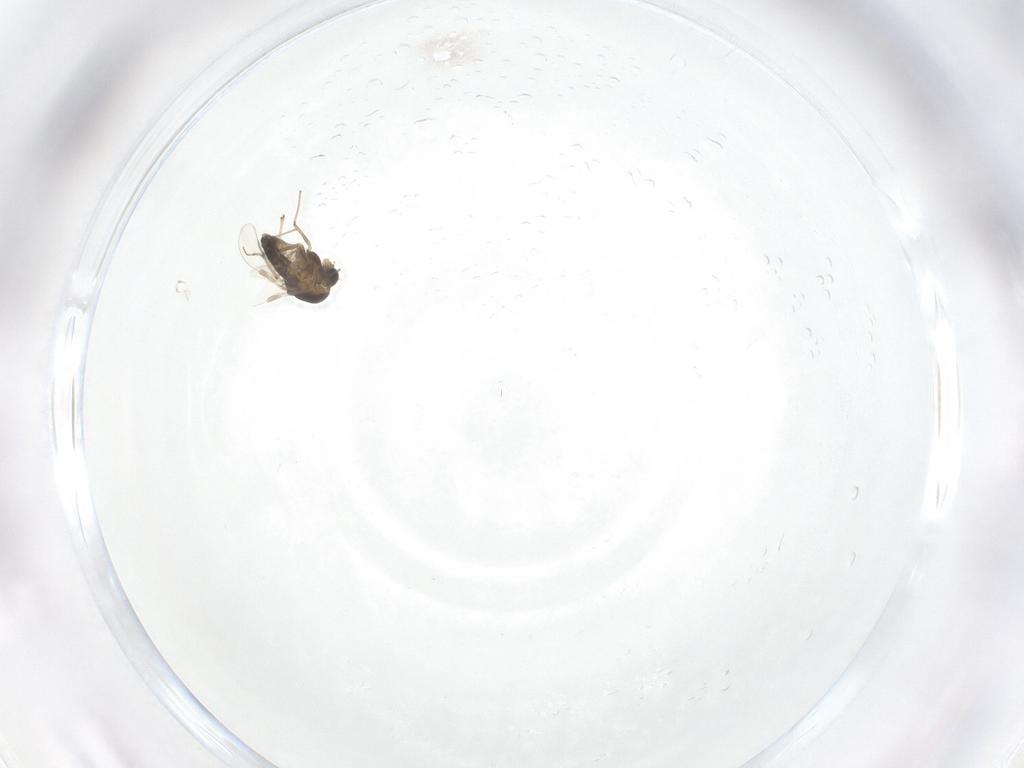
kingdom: Animalia
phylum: Arthropoda
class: Insecta
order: Diptera
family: Chironomidae
